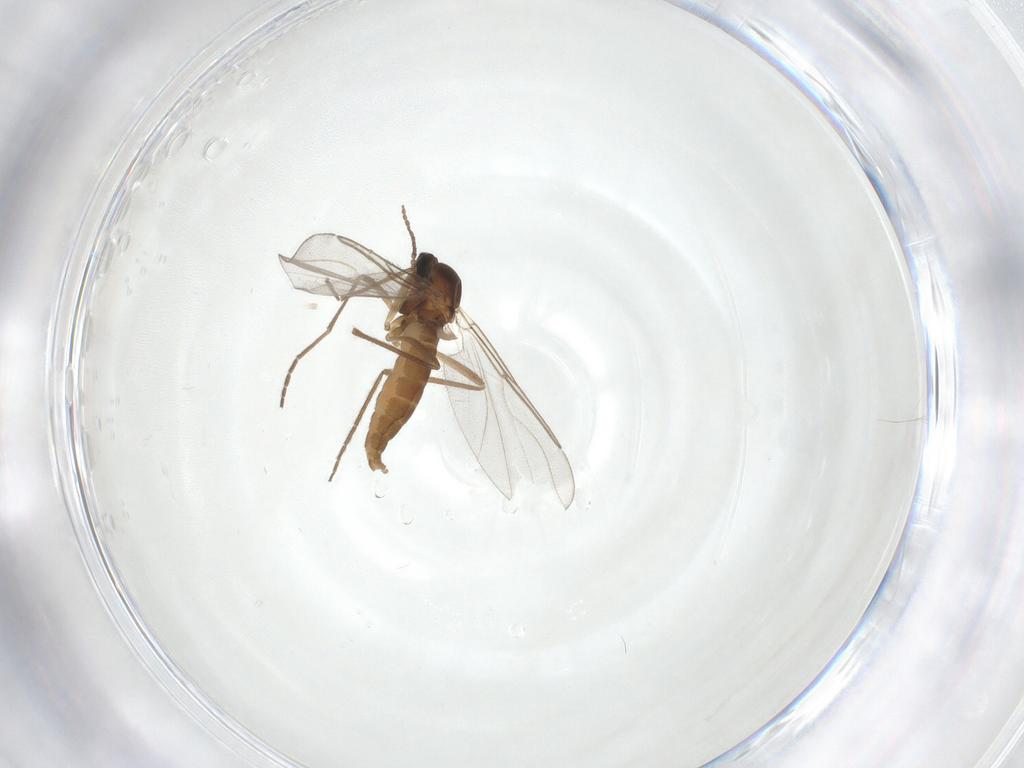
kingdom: Animalia
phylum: Arthropoda
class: Insecta
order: Diptera
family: Cecidomyiidae
